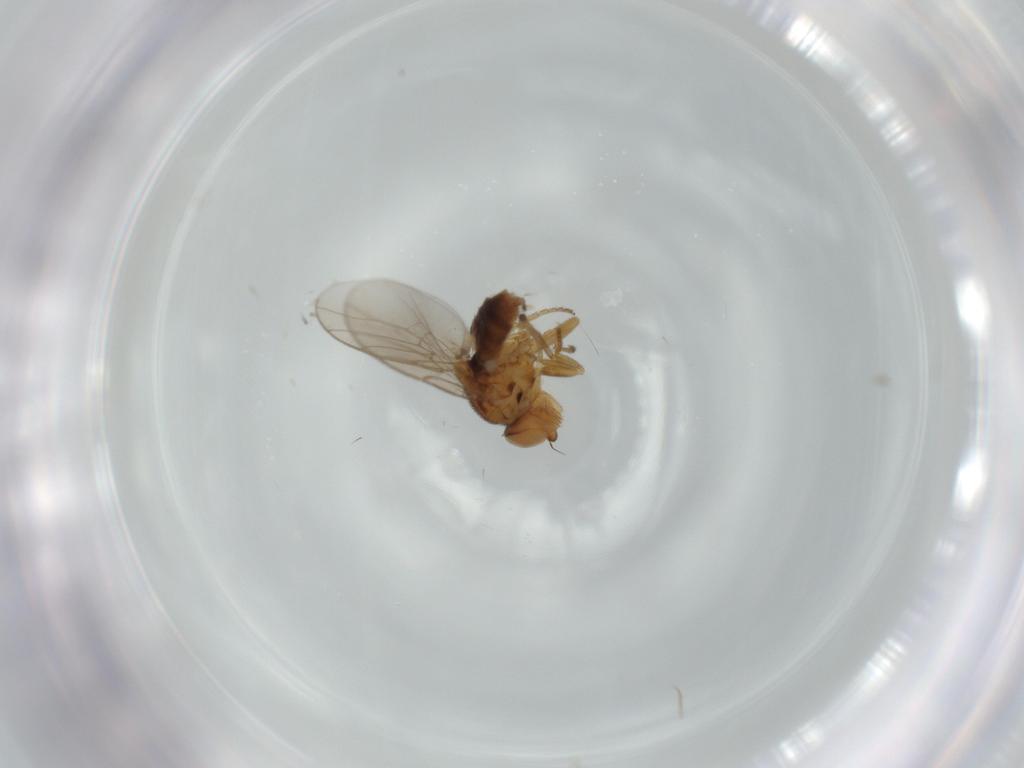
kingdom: Animalia
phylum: Arthropoda
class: Insecta
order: Diptera
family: Chloropidae
